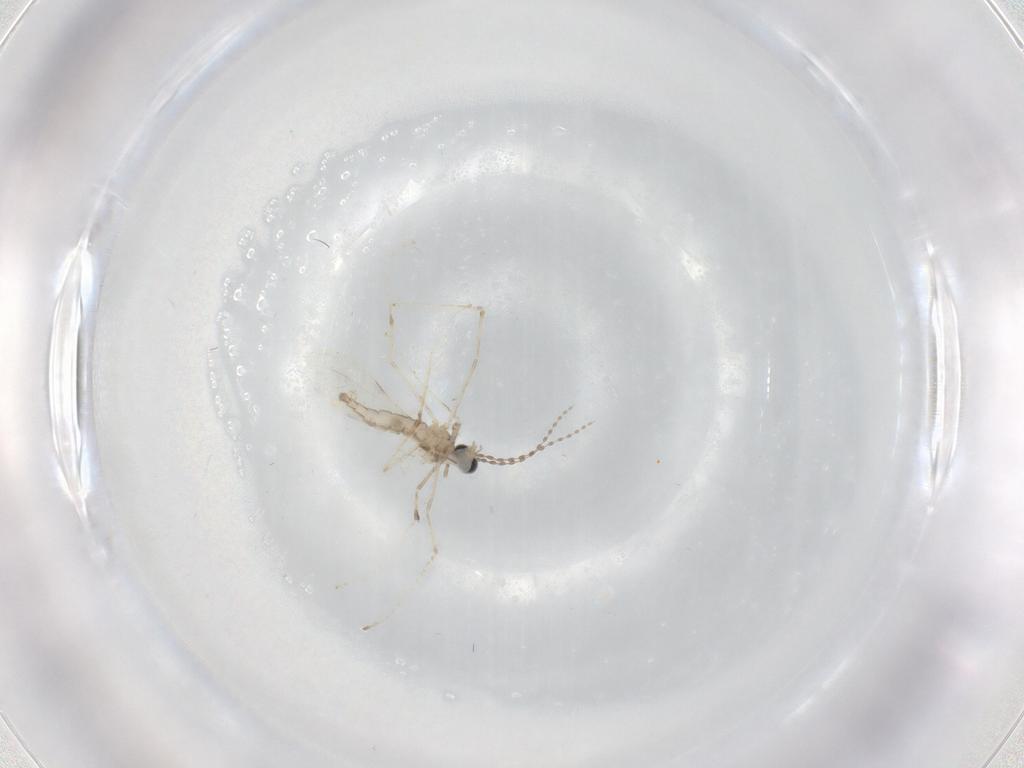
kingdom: Animalia
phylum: Arthropoda
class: Insecta
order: Diptera
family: Cecidomyiidae
